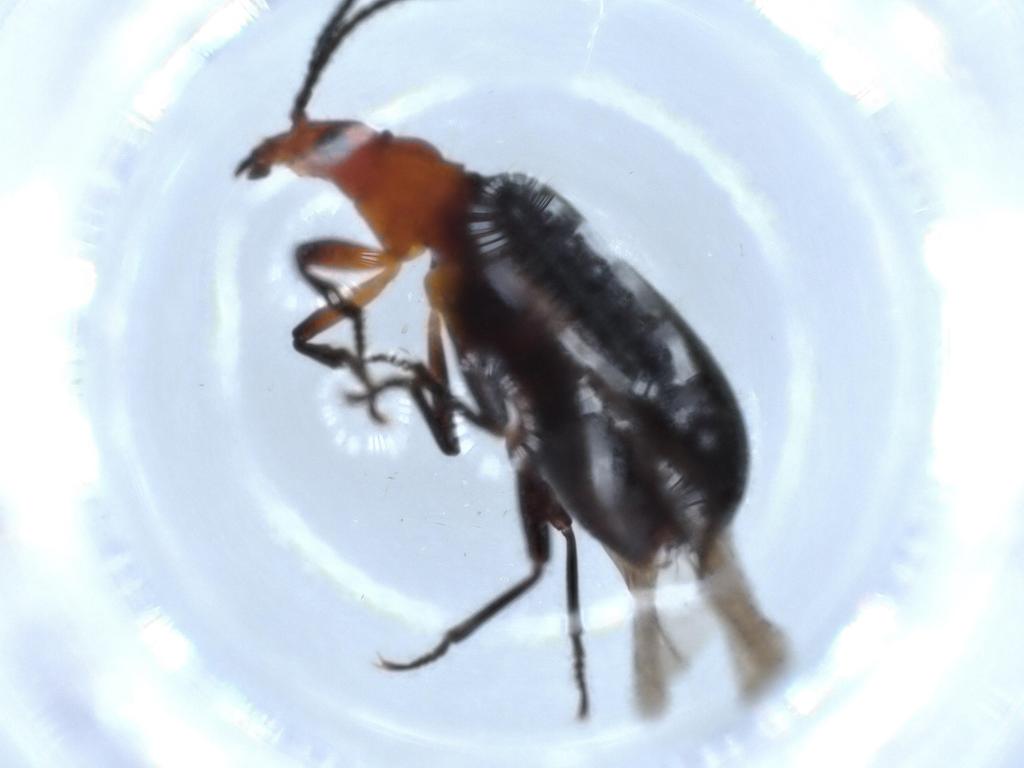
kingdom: Animalia
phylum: Arthropoda
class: Insecta
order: Coleoptera
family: Carabidae
